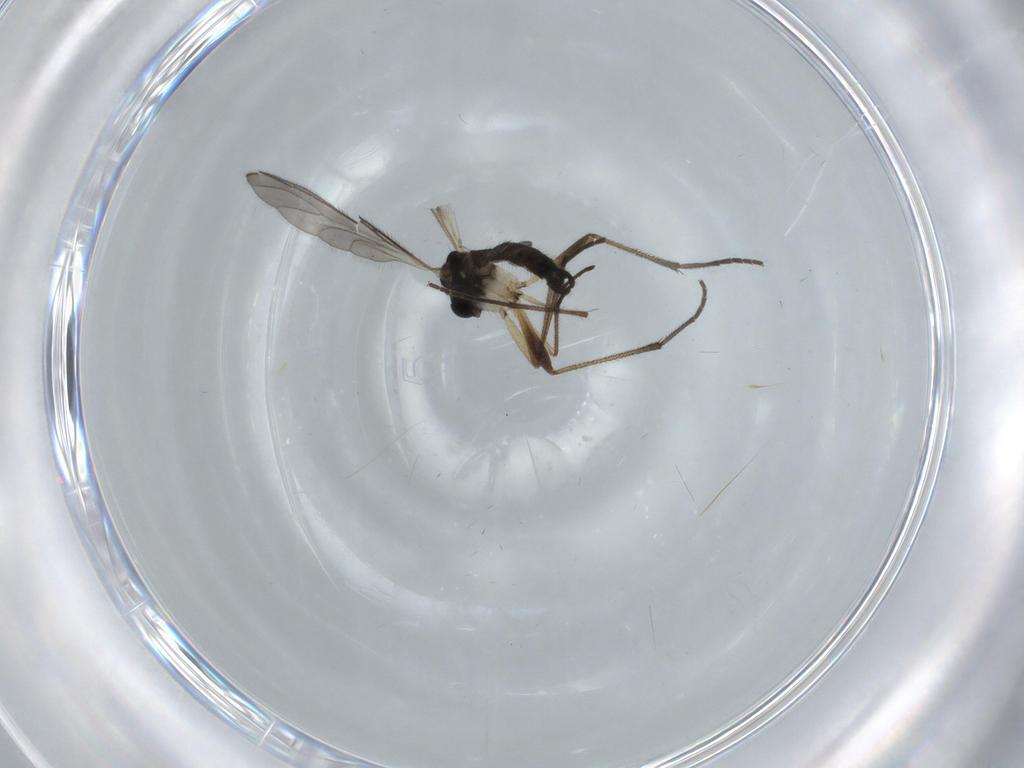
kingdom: Animalia
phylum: Arthropoda
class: Insecta
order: Diptera
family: Sciaridae
